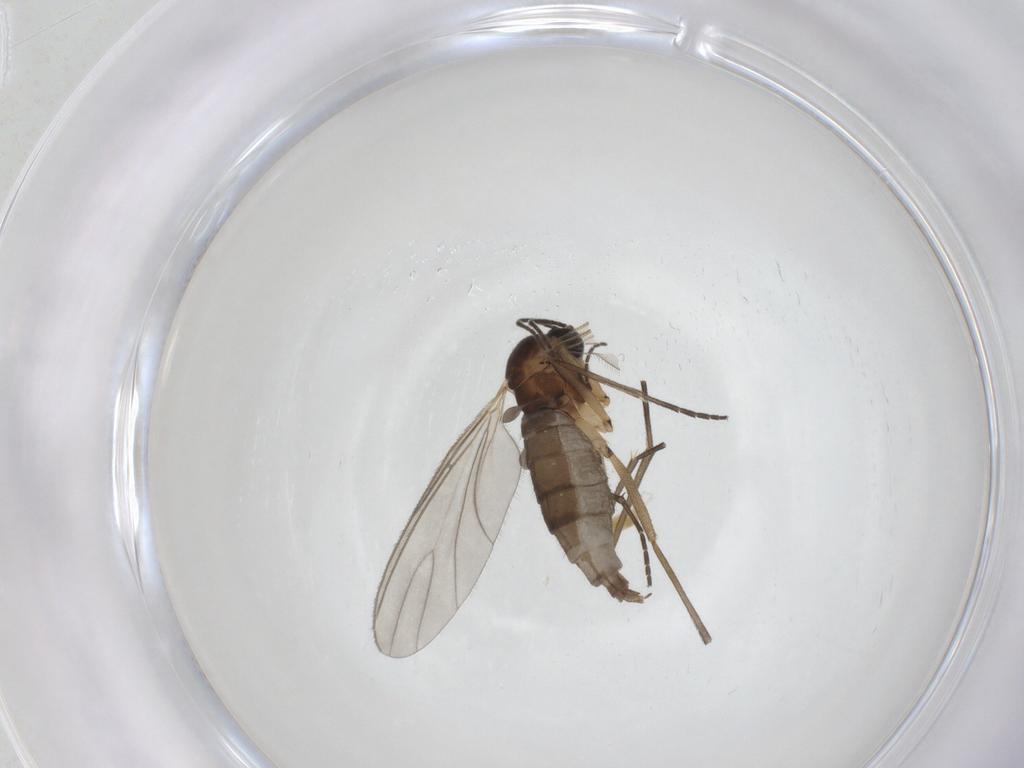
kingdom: Animalia
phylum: Arthropoda
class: Insecta
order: Diptera
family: Sciaridae
